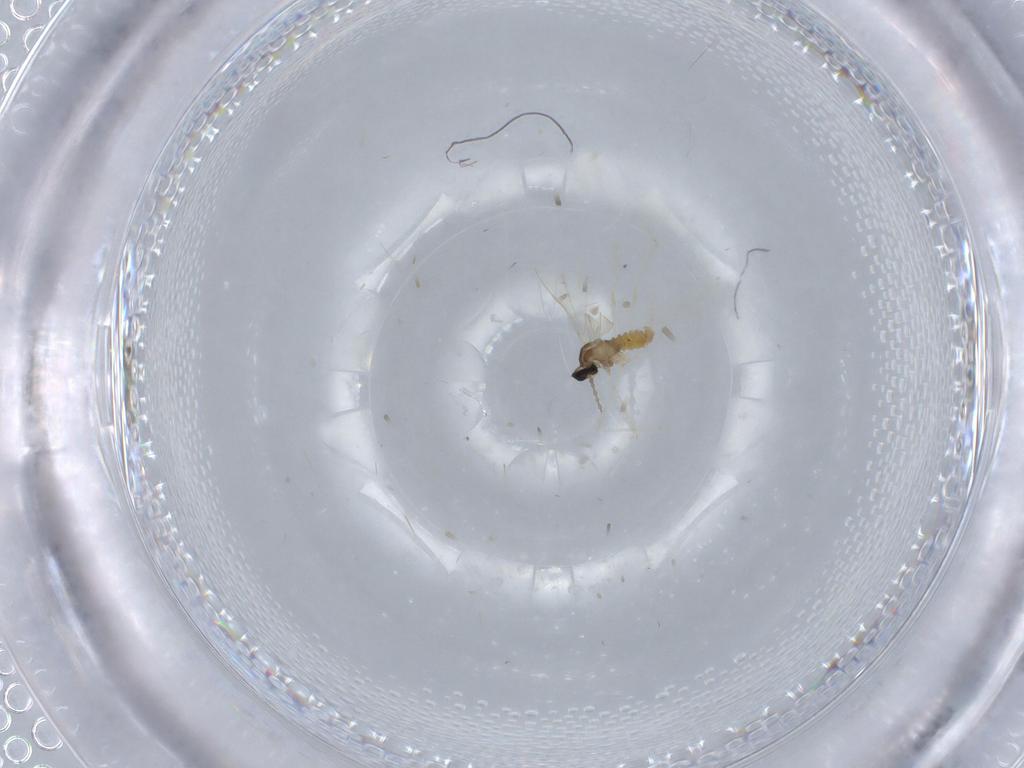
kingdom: Animalia
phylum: Arthropoda
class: Insecta
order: Diptera
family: Cecidomyiidae
